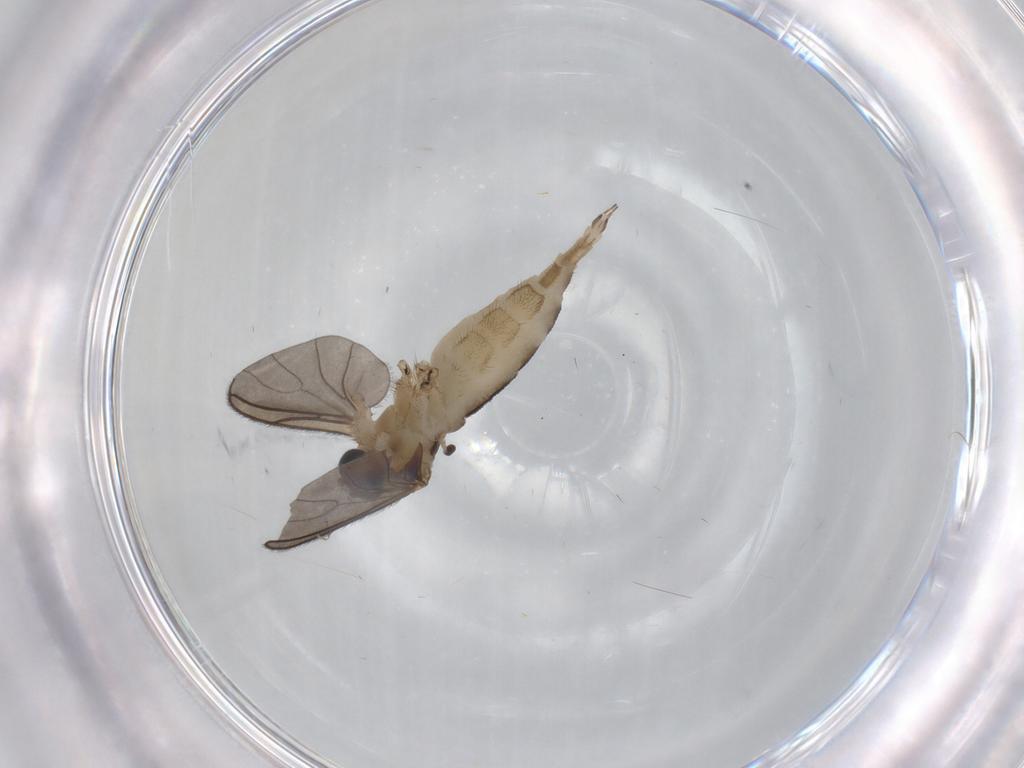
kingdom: Animalia
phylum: Arthropoda
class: Insecta
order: Diptera
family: Sciaridae
